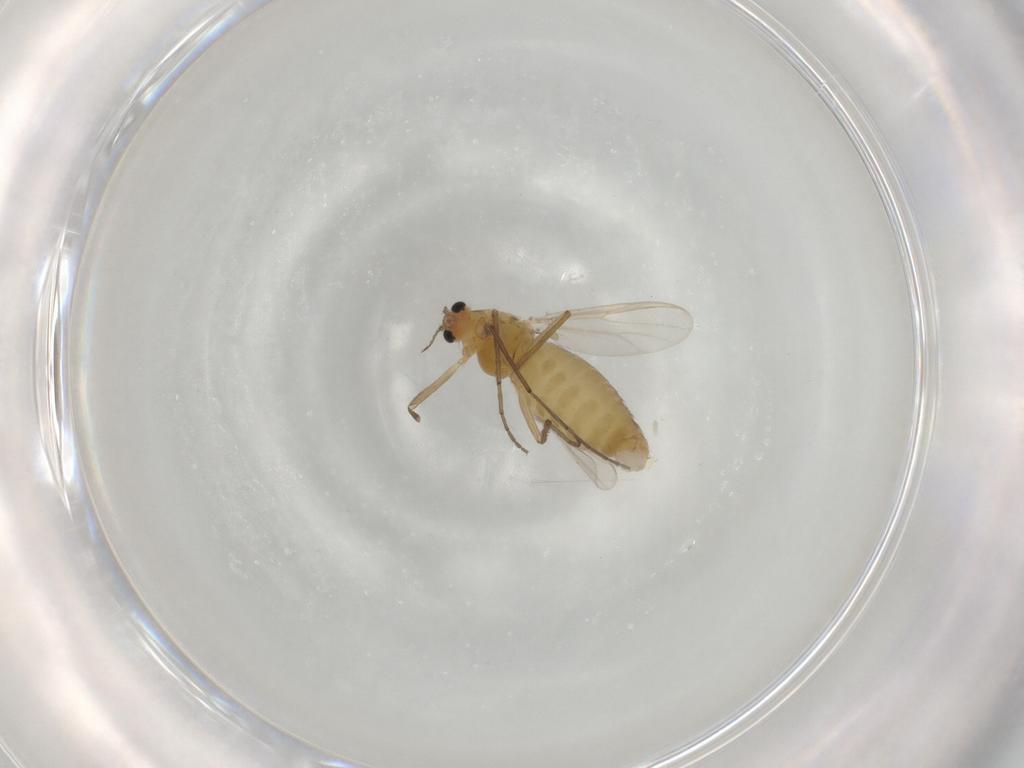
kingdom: Animalia
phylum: Arthropoda
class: Insecta
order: Diptera
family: Chironomidae
